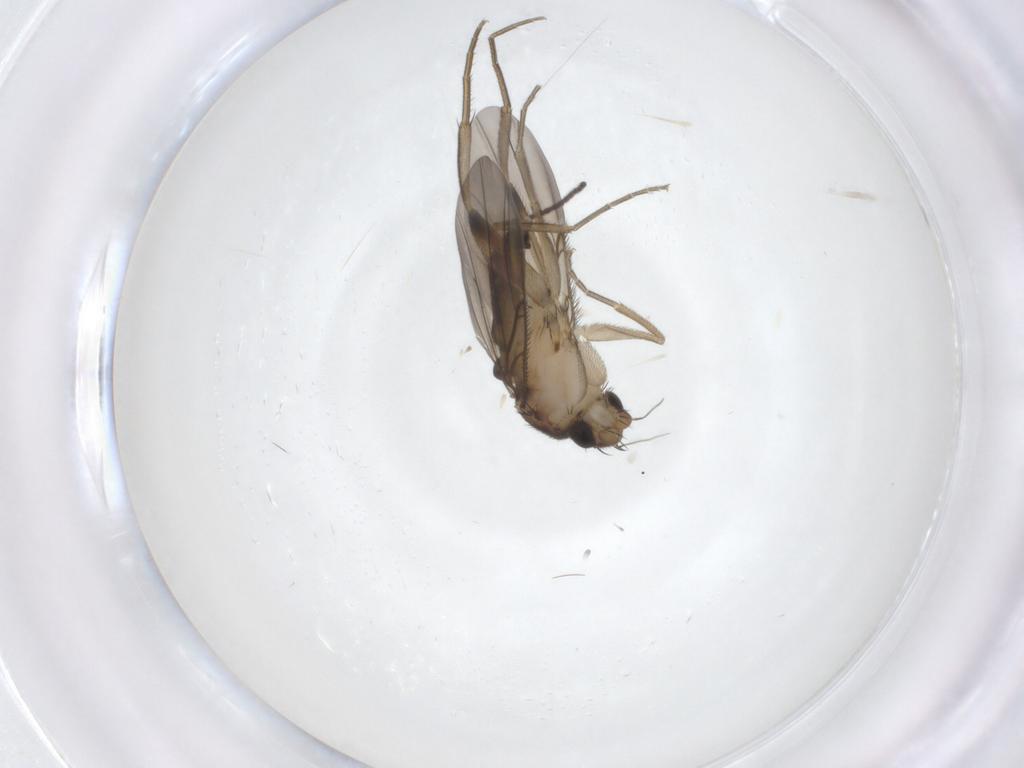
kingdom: Animalia
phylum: Arthropoda
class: Insecta
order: Diptera
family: Phoridae
